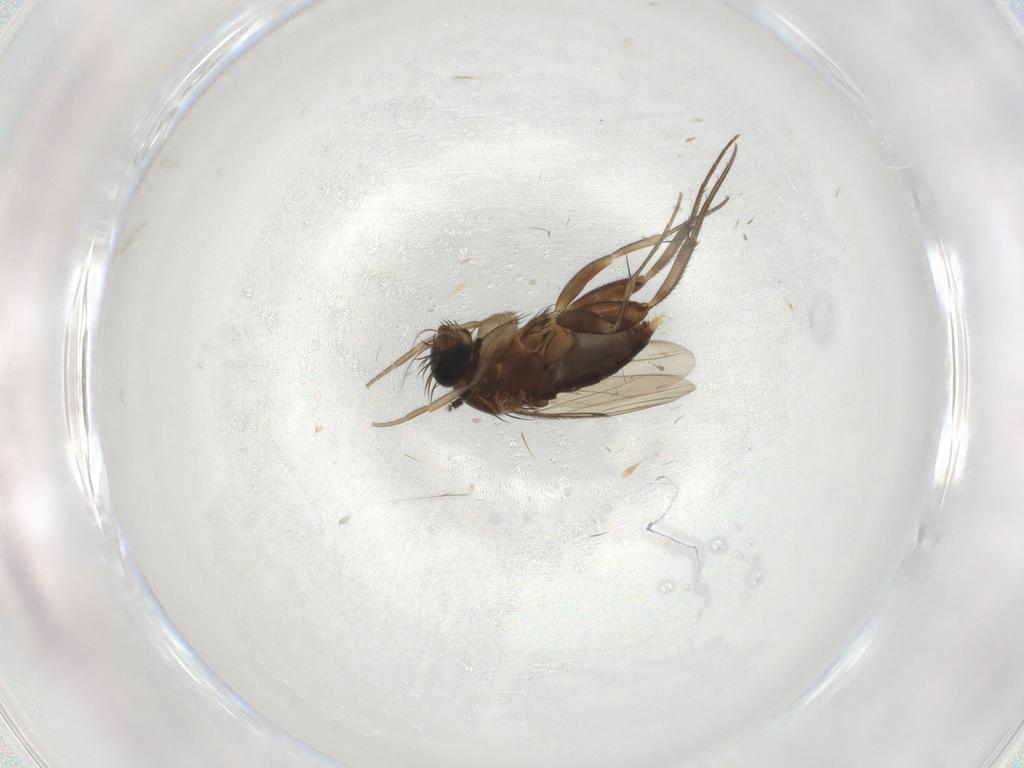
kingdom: Animalia
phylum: Arthropoda
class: Insecta
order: Diptera
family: Phoridae
